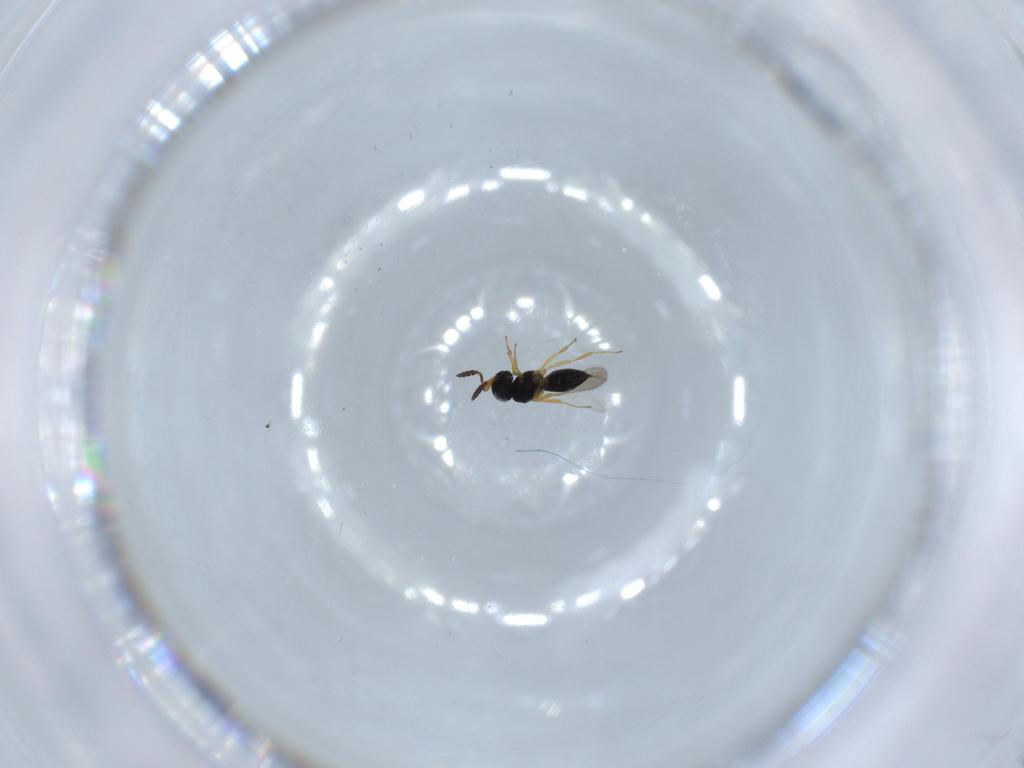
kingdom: Animalia
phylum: Arthropoda
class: Insecta
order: Hymenoptera
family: Scelionidae
